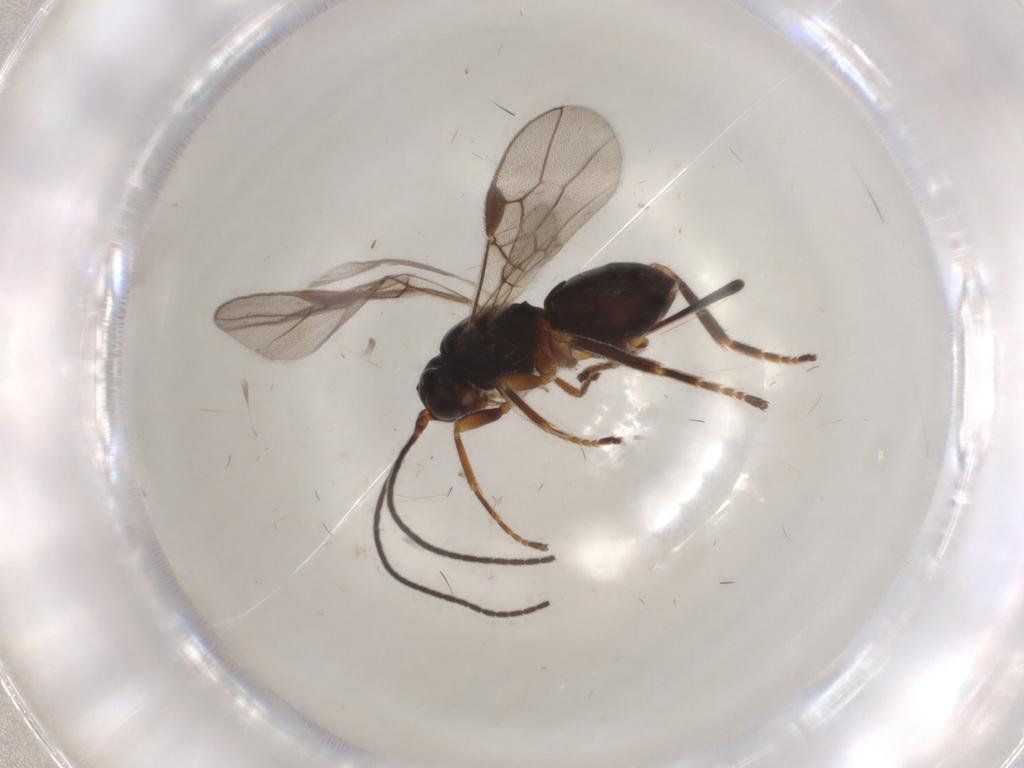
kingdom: Animalia
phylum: Arthropoda
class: Insecta
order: Hymenoptera
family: Braconidae
